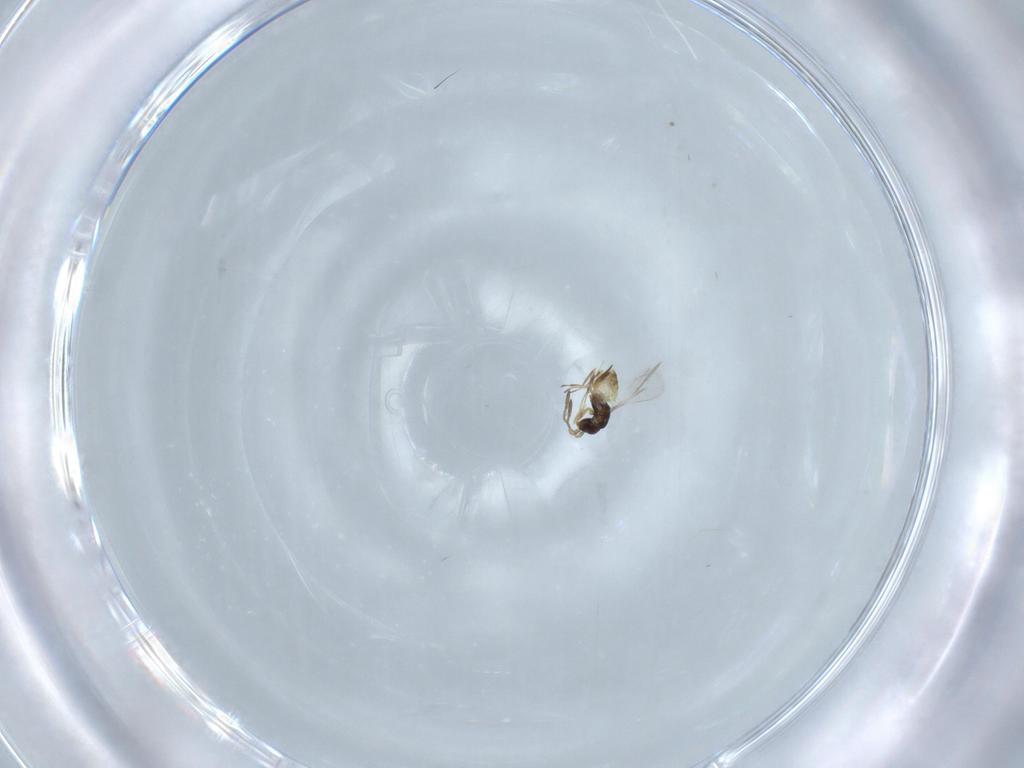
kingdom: Animalia
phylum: Arthropoda
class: Insecta
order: Hymenoptera
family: Mymaridae
